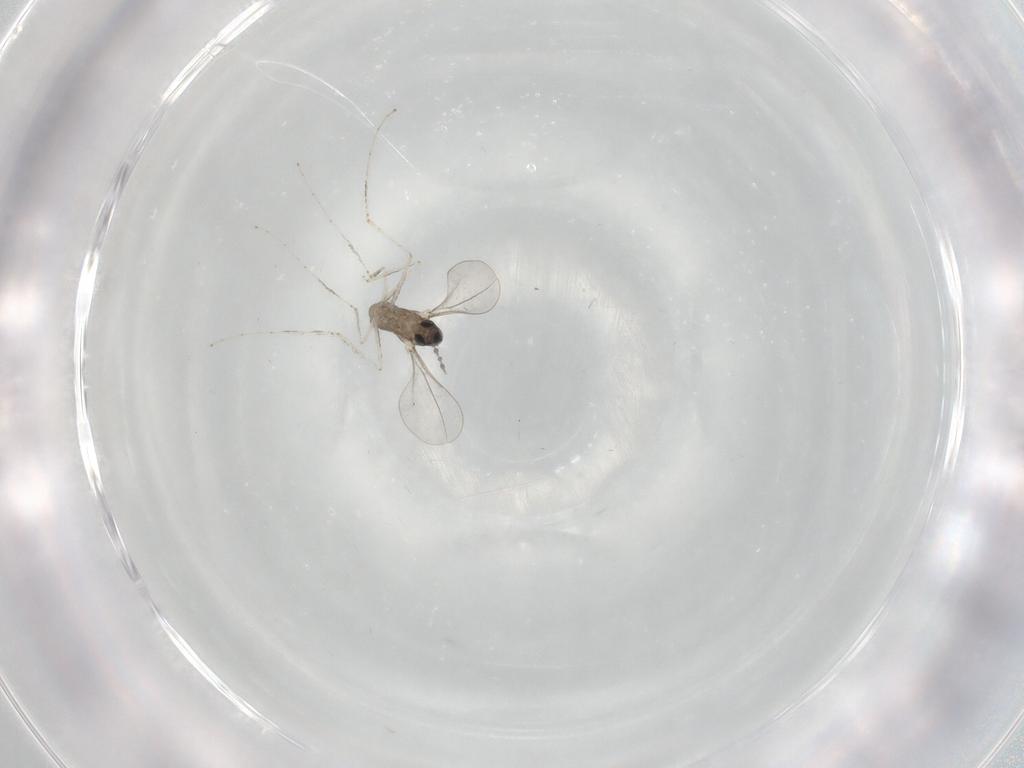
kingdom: Animalia
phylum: Arthropoda
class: Insecta
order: Diptera
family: Cecidomyiidae
